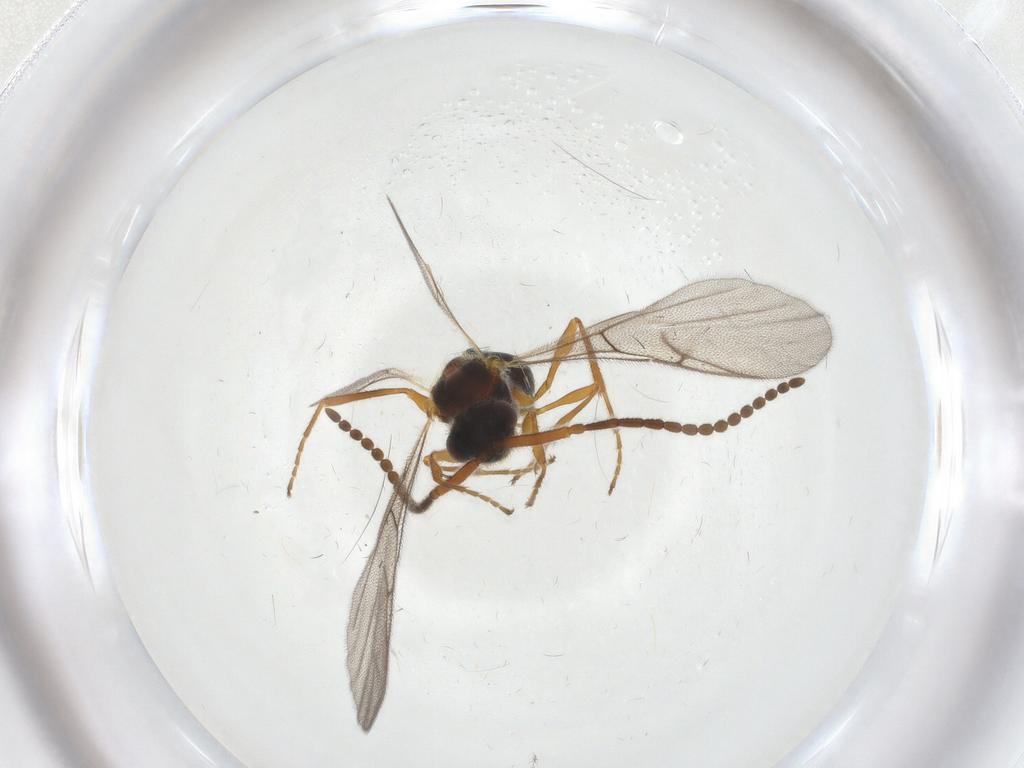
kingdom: Animalia
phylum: Arthropoda
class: Insecta
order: Hymenoptera
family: Diapriidae
